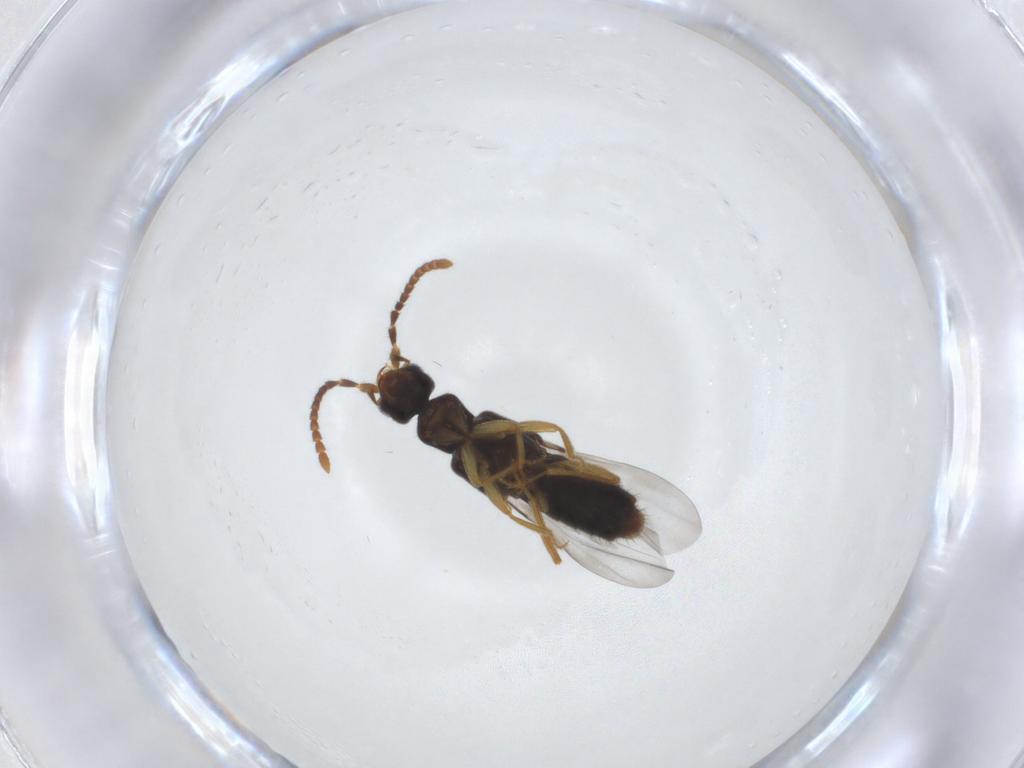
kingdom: Animalia
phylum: Arthropoda
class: Insecta
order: Coleoptera
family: Staphylinidae
